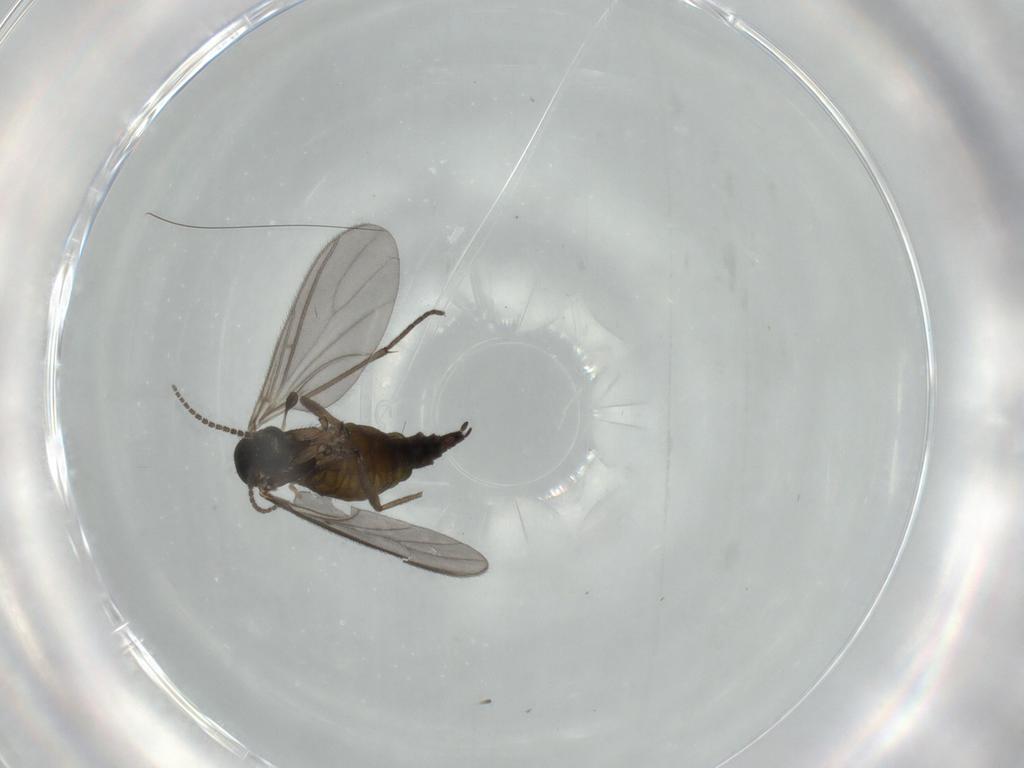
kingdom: Animalia
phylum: Arthropoda
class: Insecta
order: Diptera
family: Sciaridae
